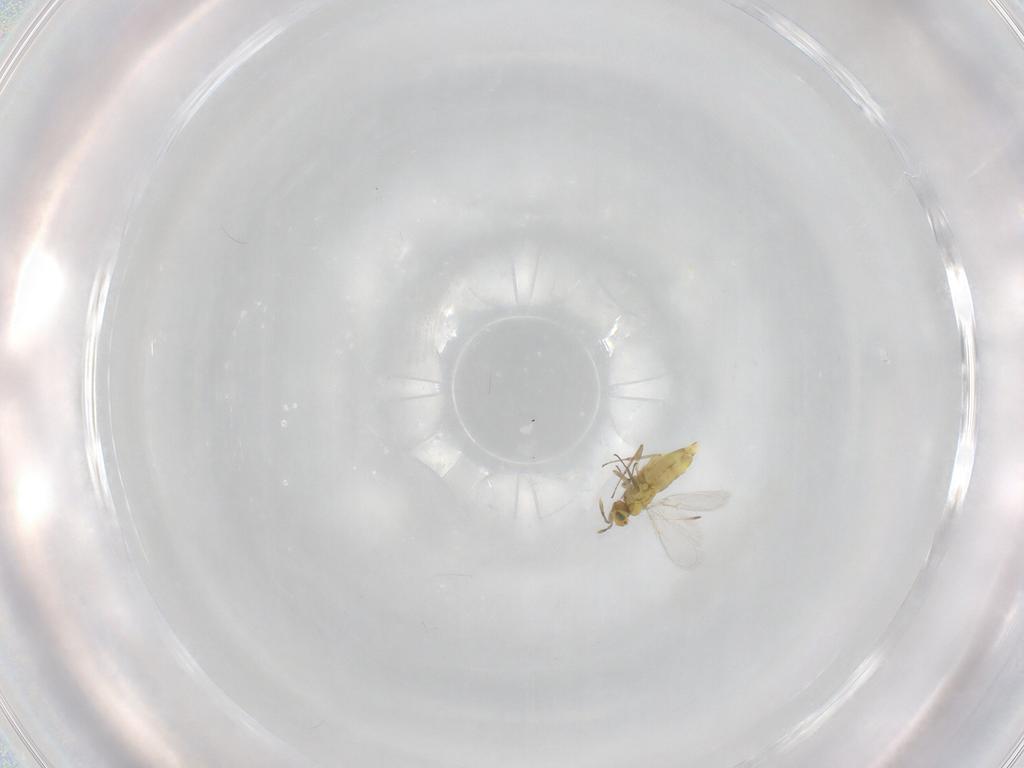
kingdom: Animalia
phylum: Arthropoda
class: Insecta
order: Hymenoptera
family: Aphelinidae
